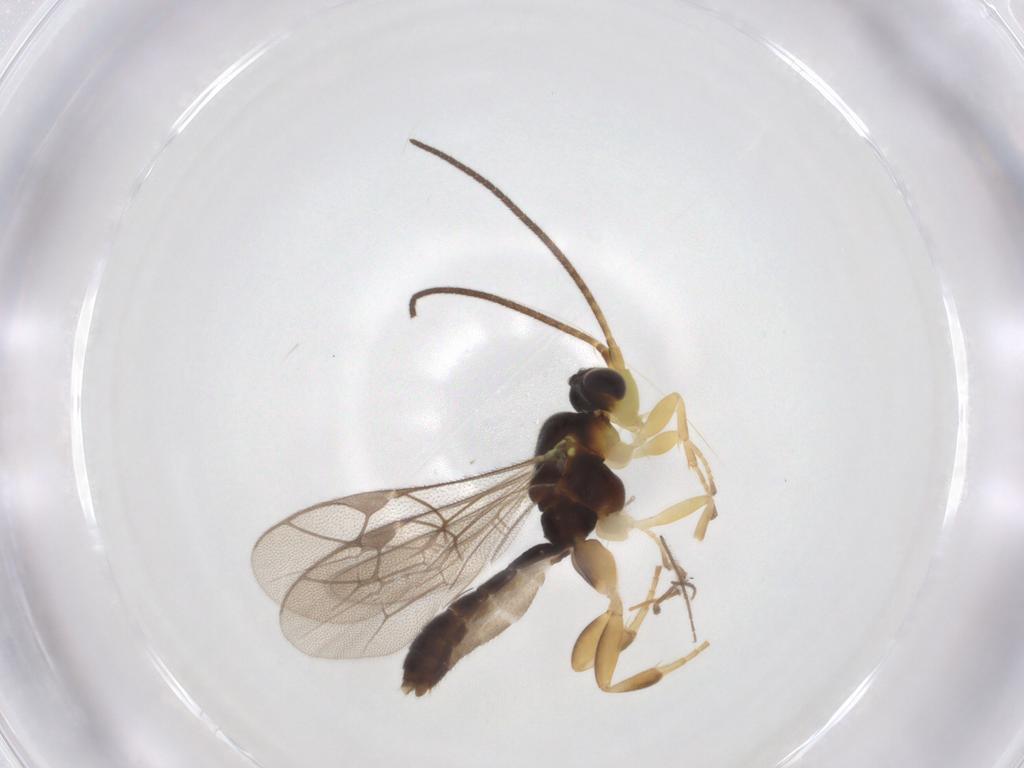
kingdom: Animalia
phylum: Arthropoda
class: Insecta
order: Hymenoptera
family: Ichneumonidae
